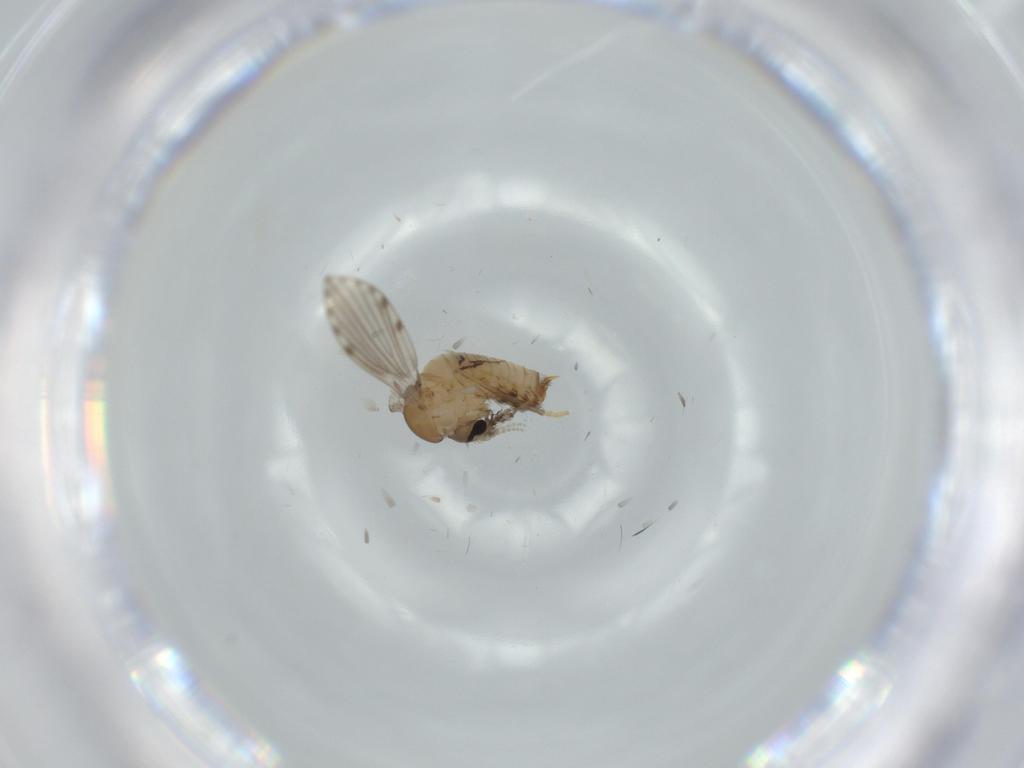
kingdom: Animalia
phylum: Arthropoda
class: Insecta
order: Diptera
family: Psychodidae
